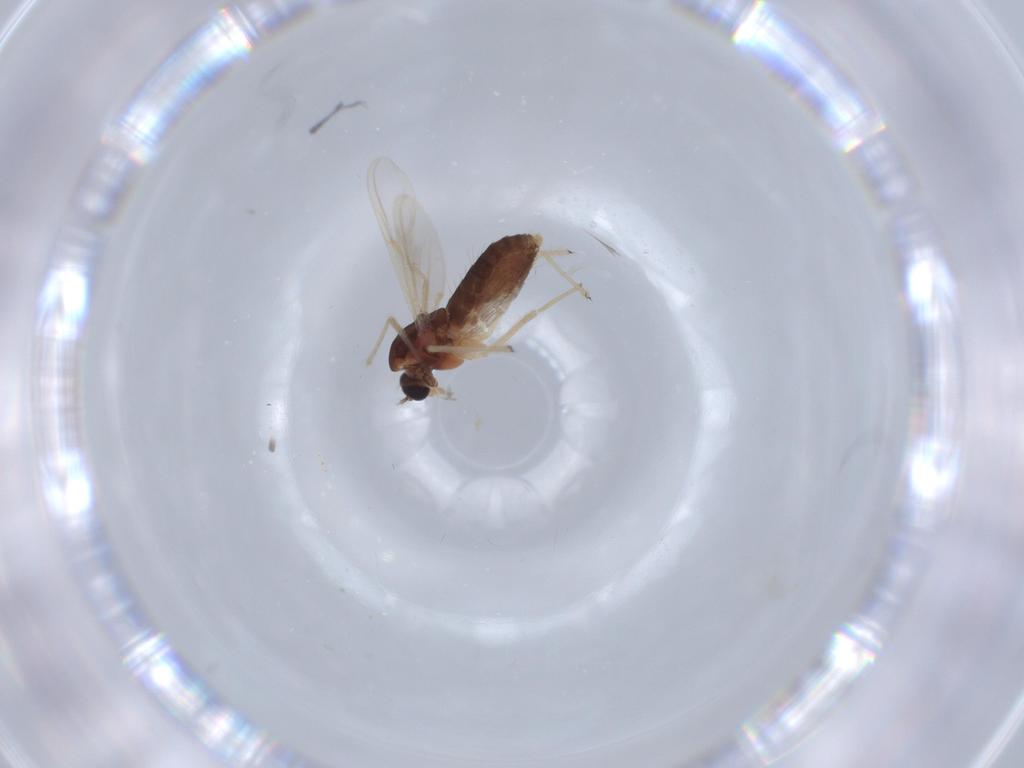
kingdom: Animalia
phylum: Arthropoda
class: Insecta
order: Diptera
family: Chironomidae
